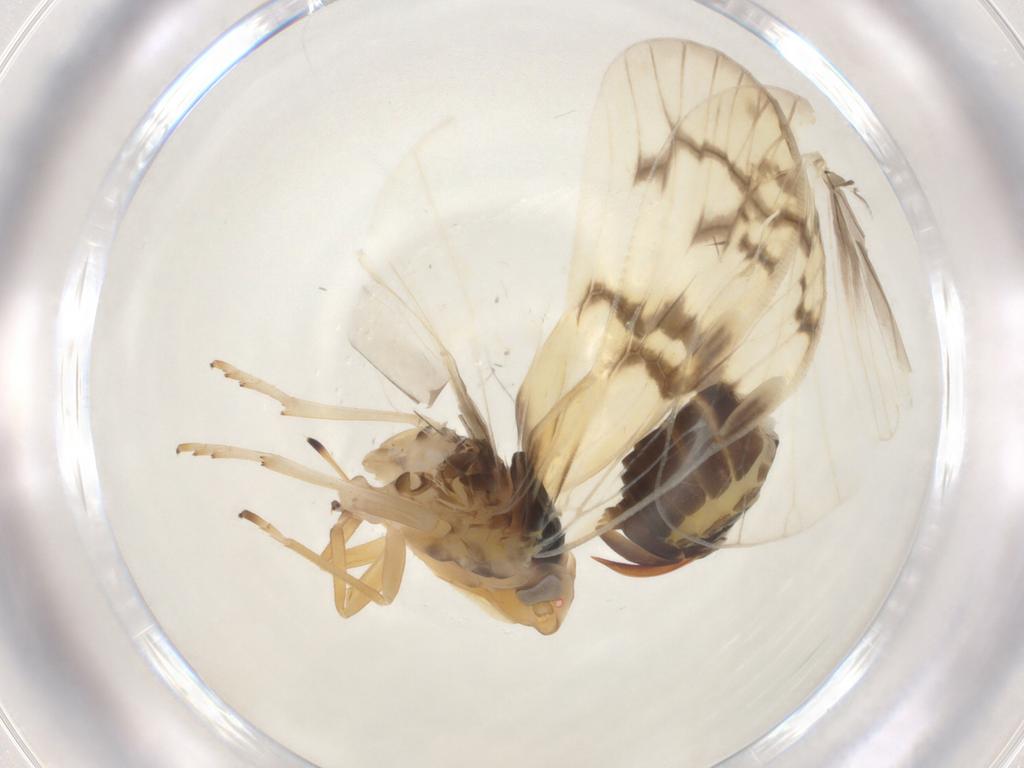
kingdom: Animalia
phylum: Arthropoda
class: Insecta
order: Hemiptera
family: Cixiidae
